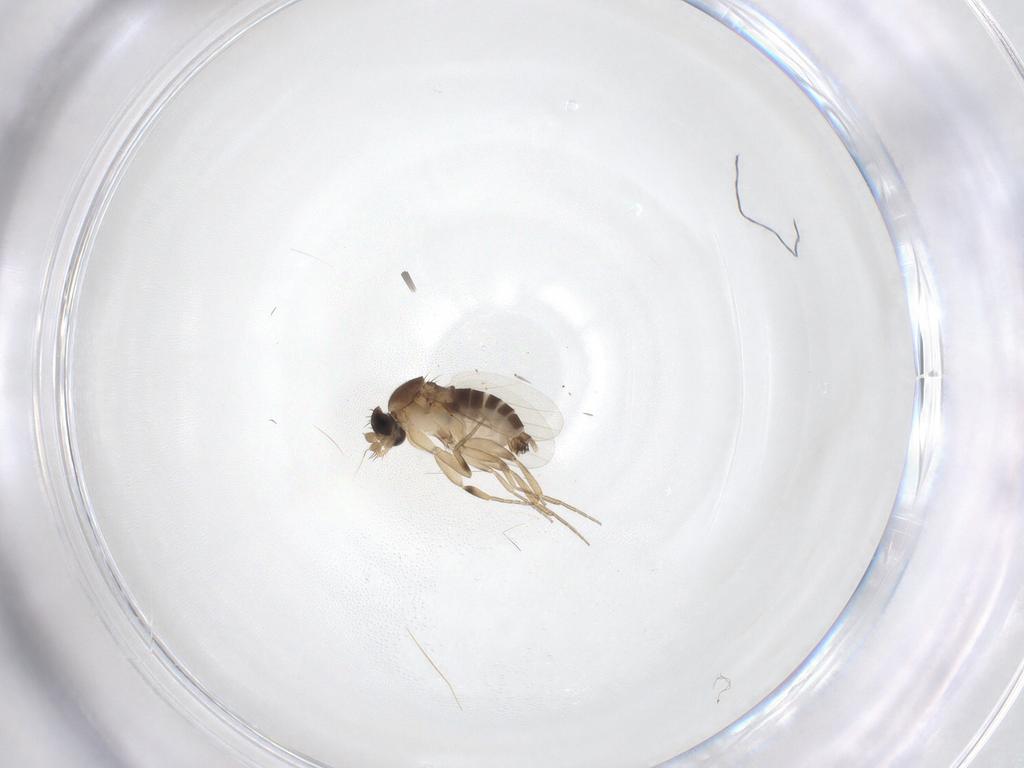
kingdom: Animalia
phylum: Arthropoda
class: Insecta
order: Diptera
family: Phoridae
